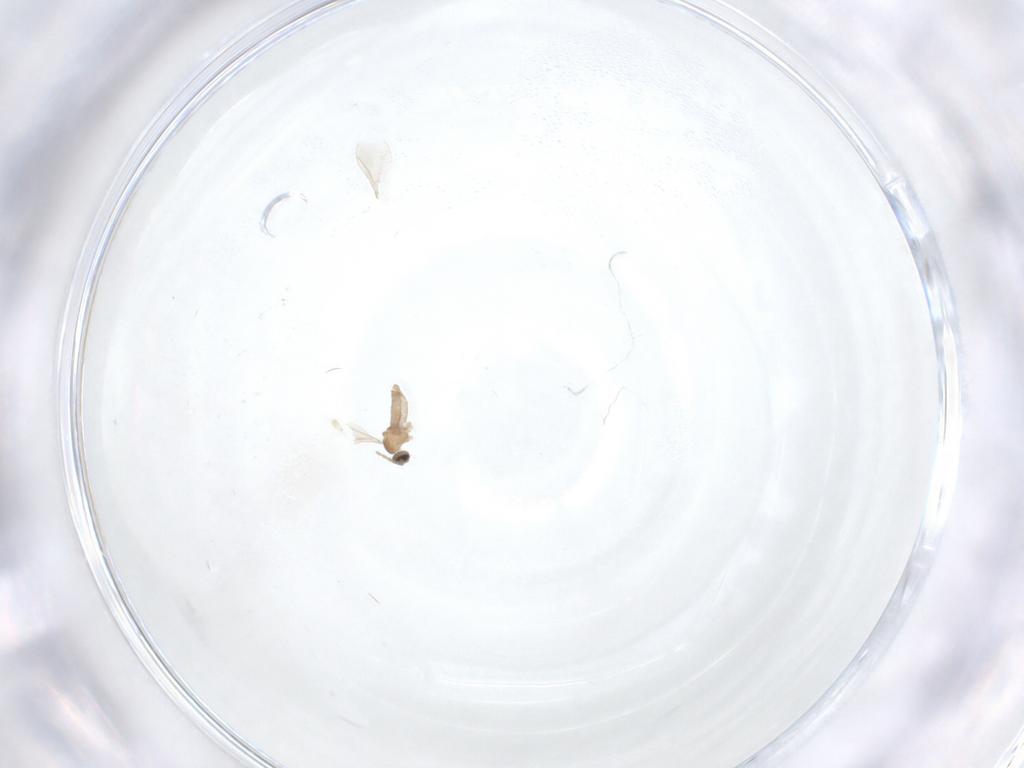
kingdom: Animalia
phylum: Arthropoda
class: Insecta
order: Diptera
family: Cecidomyiidae
